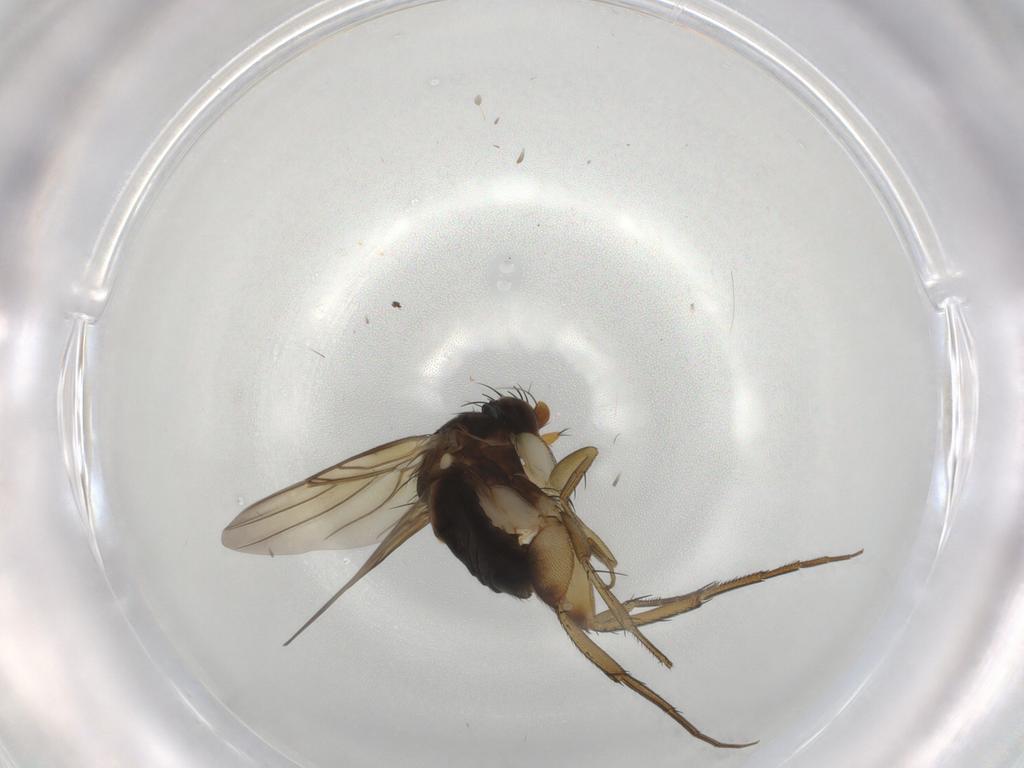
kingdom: Animalia
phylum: Arthropoda
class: Insecta
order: Diptera
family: Phoridae
